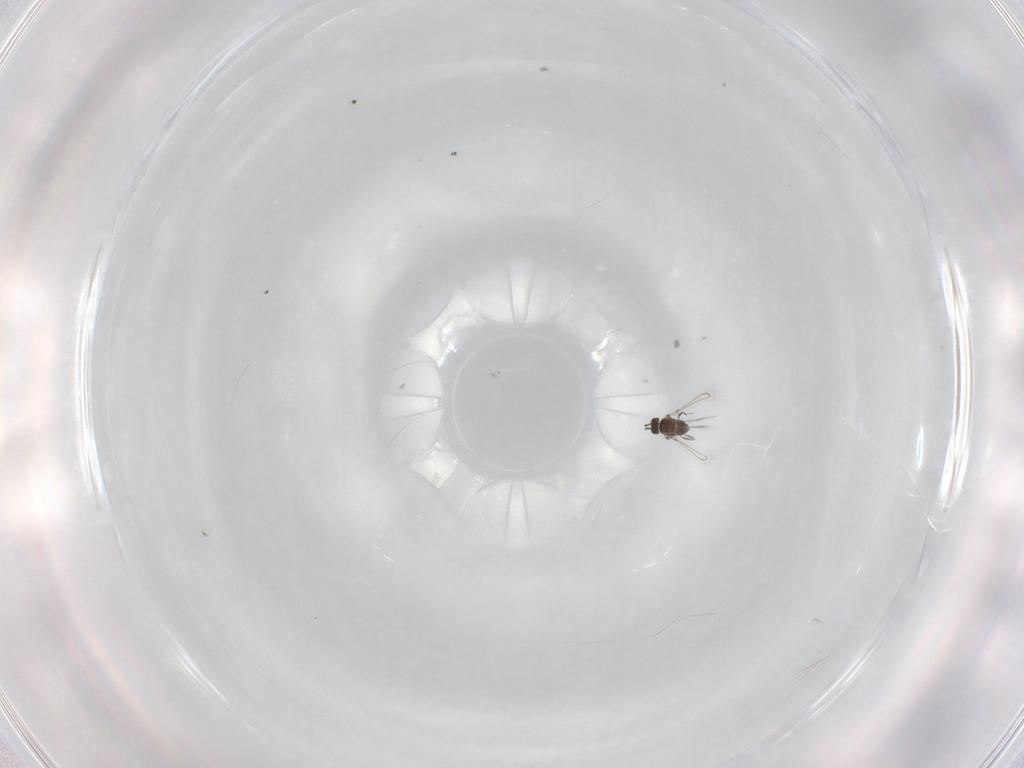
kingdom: Animalia
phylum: Arthropoda
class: Insecta
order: Hymenoptera
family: Mymaridae
